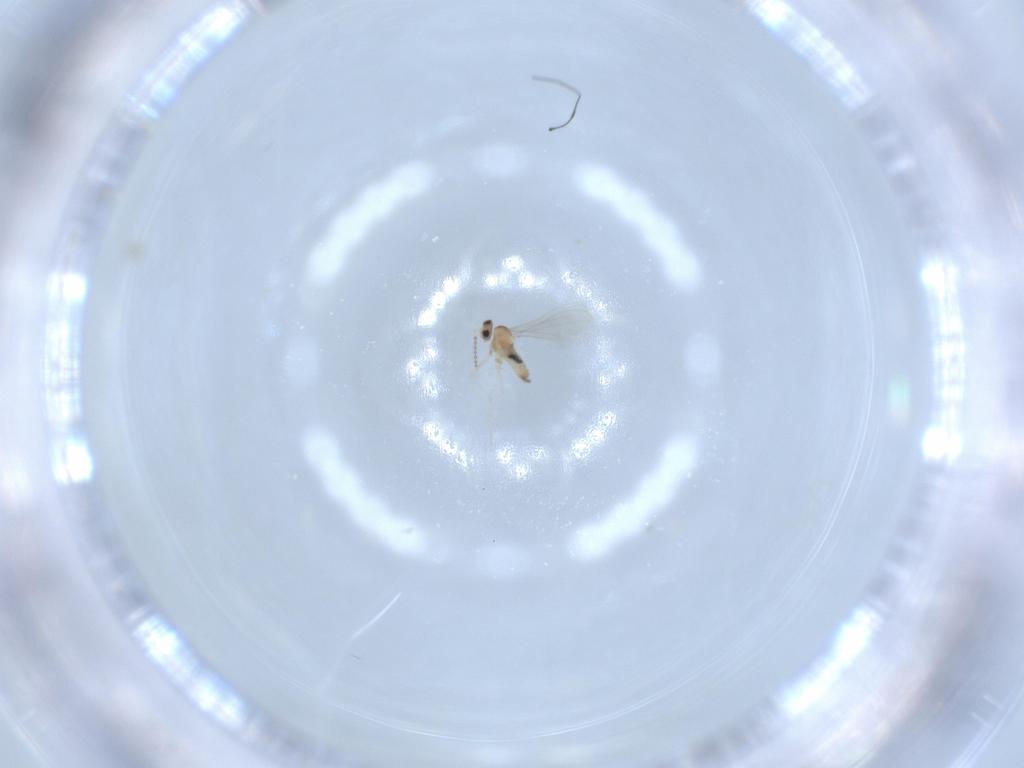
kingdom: Animalia
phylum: Arthropoda
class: Insecta
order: Diptera
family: Cecidomyiidae
